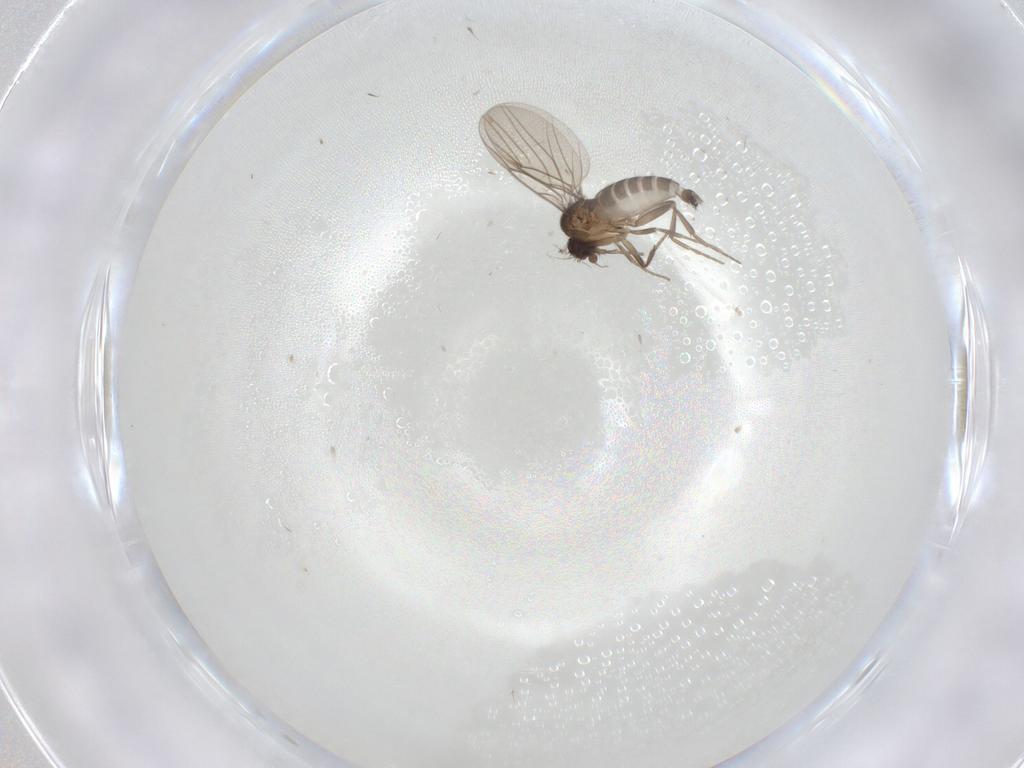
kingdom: Animalia
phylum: Arthropoda
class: Insecta
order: Diptera
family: Phoridae
